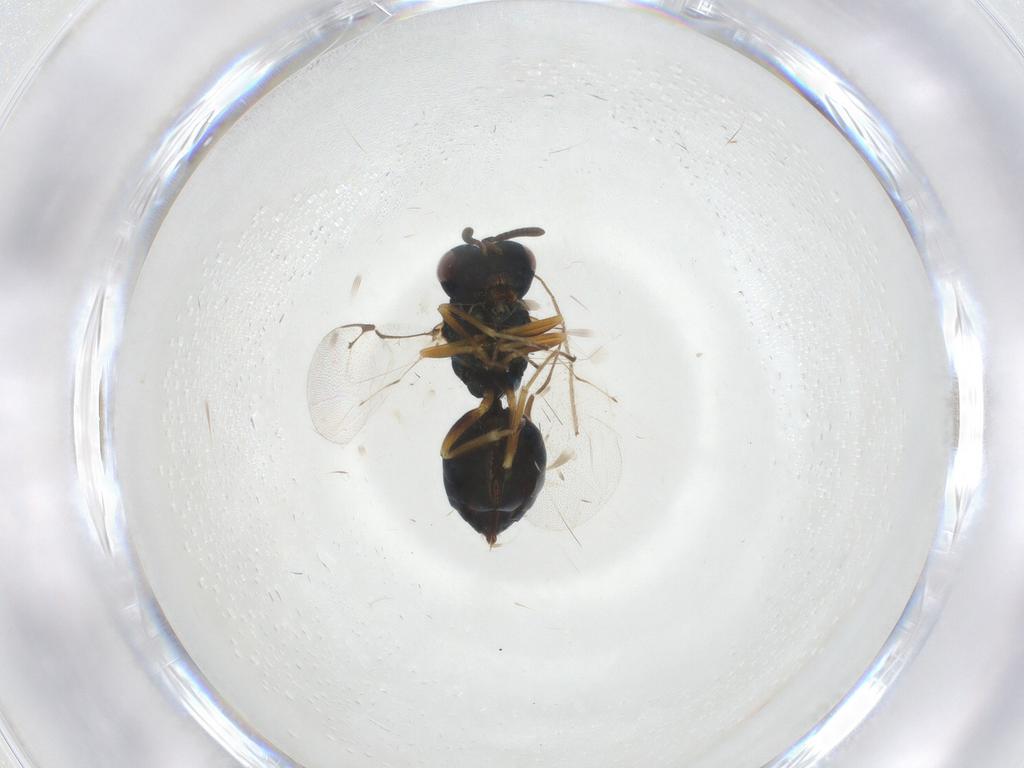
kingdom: Animalia
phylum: Arthropoda
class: Insecta
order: Hymenoptera
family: Pteromalidae
